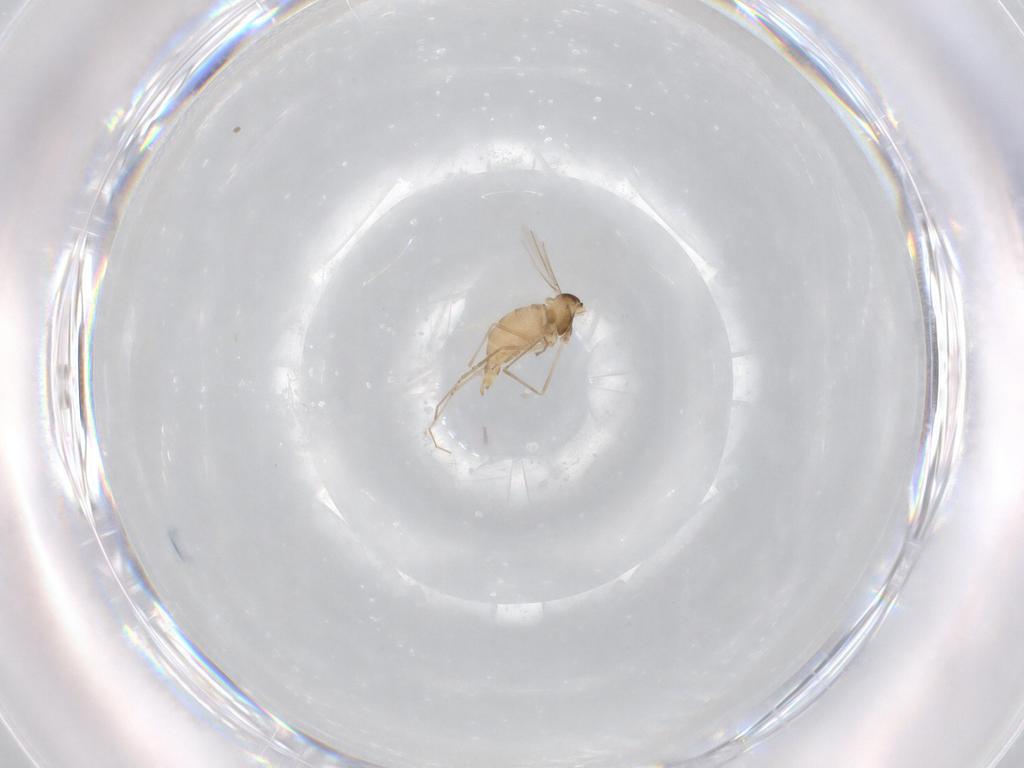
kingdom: Animalia
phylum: Arthropoda
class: Insecta
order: Diptera
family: Cecidomyiidae
